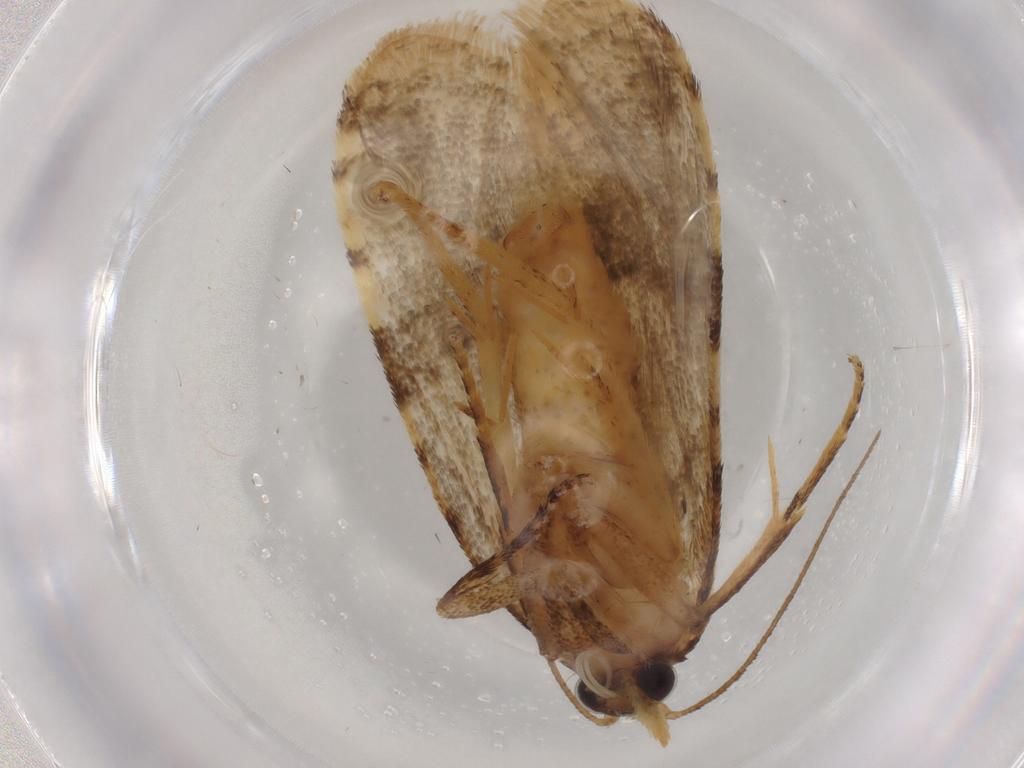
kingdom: Animalia
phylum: Arthropoda
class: Insecta
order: Lepidoptera
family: Tortricidae
